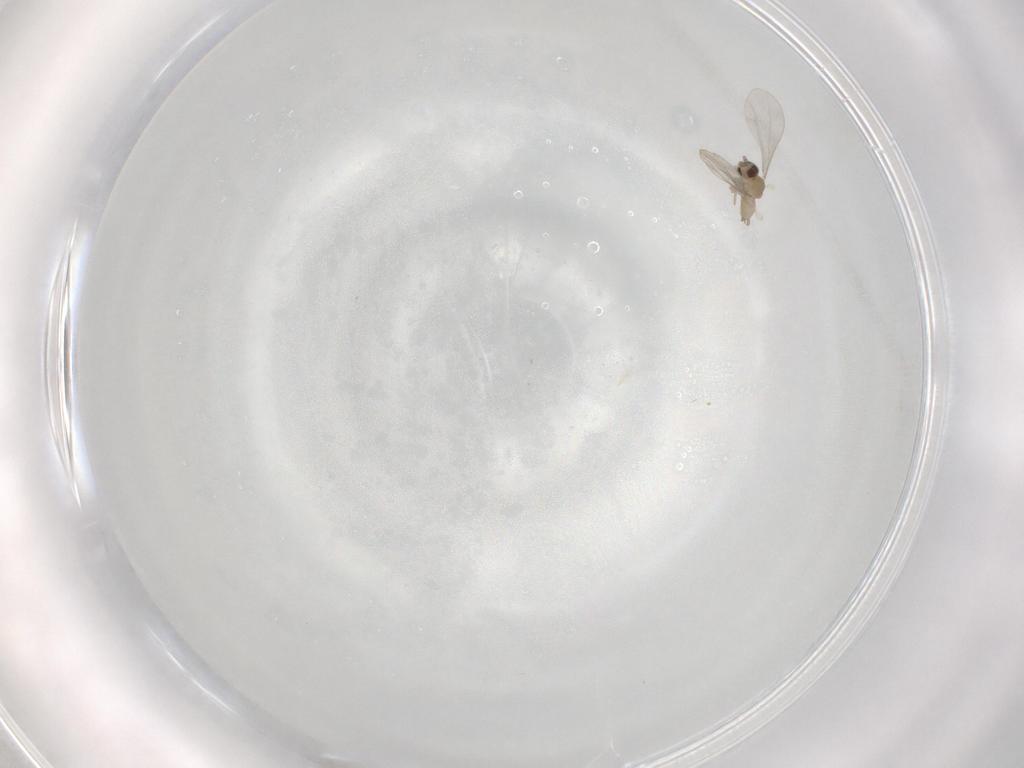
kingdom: Animalia
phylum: Arthropoda
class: Insecta
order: Diptera
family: Cecidomyiidae
